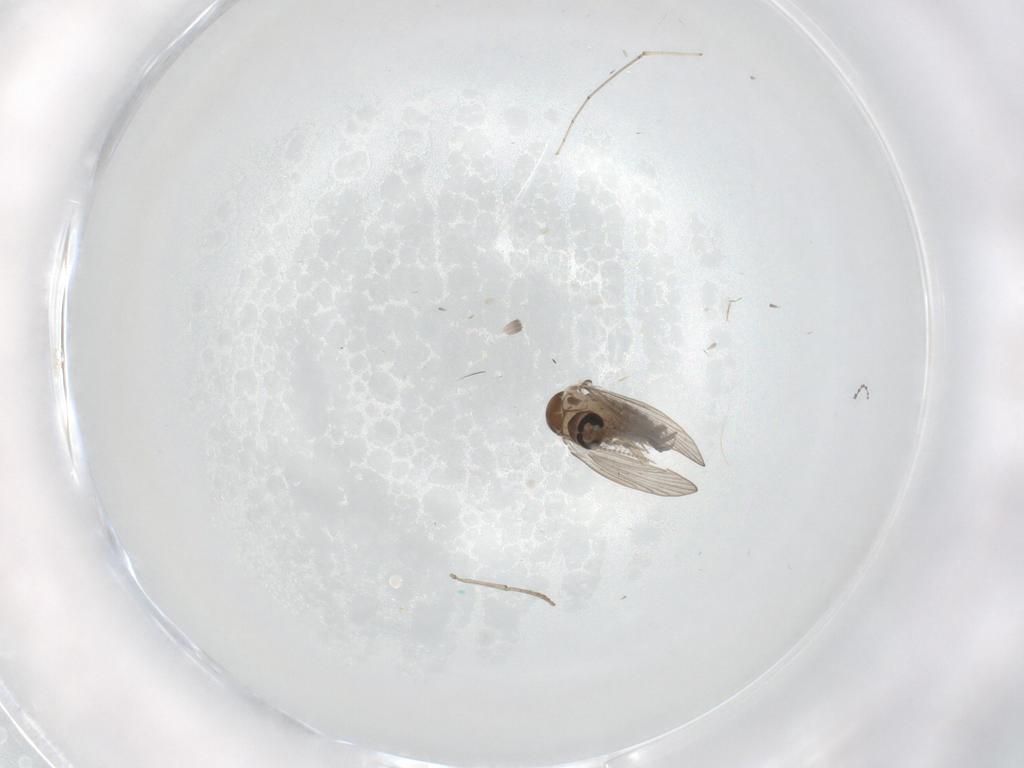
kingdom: Animalia
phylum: Arthropoda
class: Insecta
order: Diptera
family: Psychodidae
